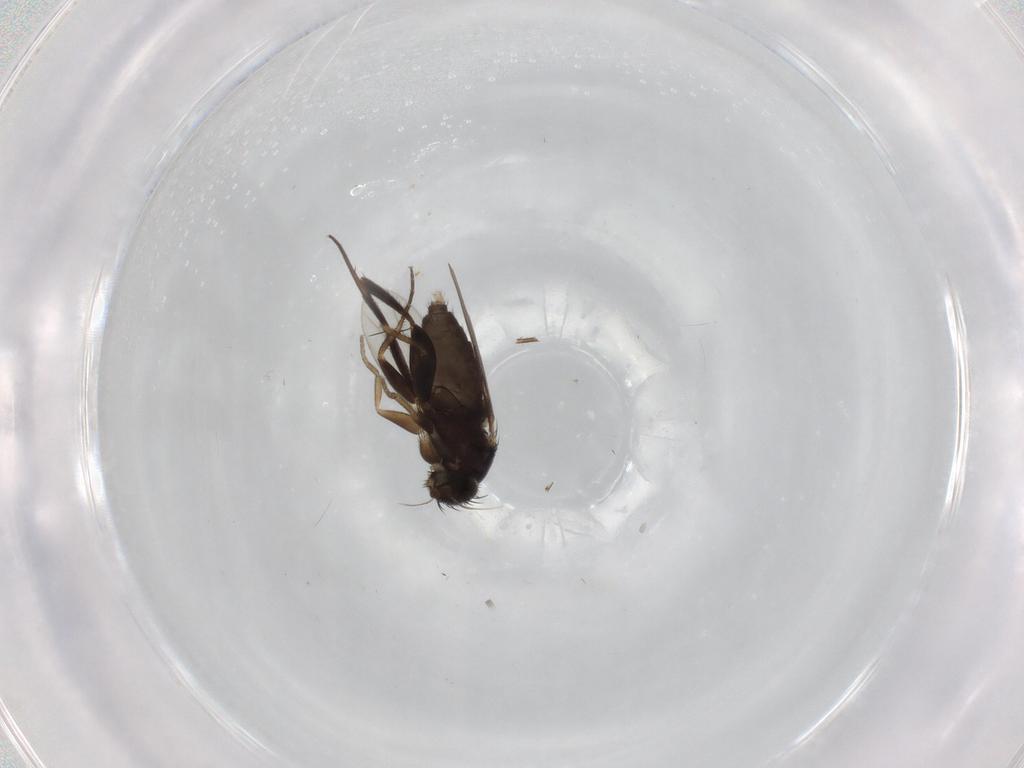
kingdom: Animalia
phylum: Arthropoda
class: Insecta
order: Diptera
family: Phoridae
